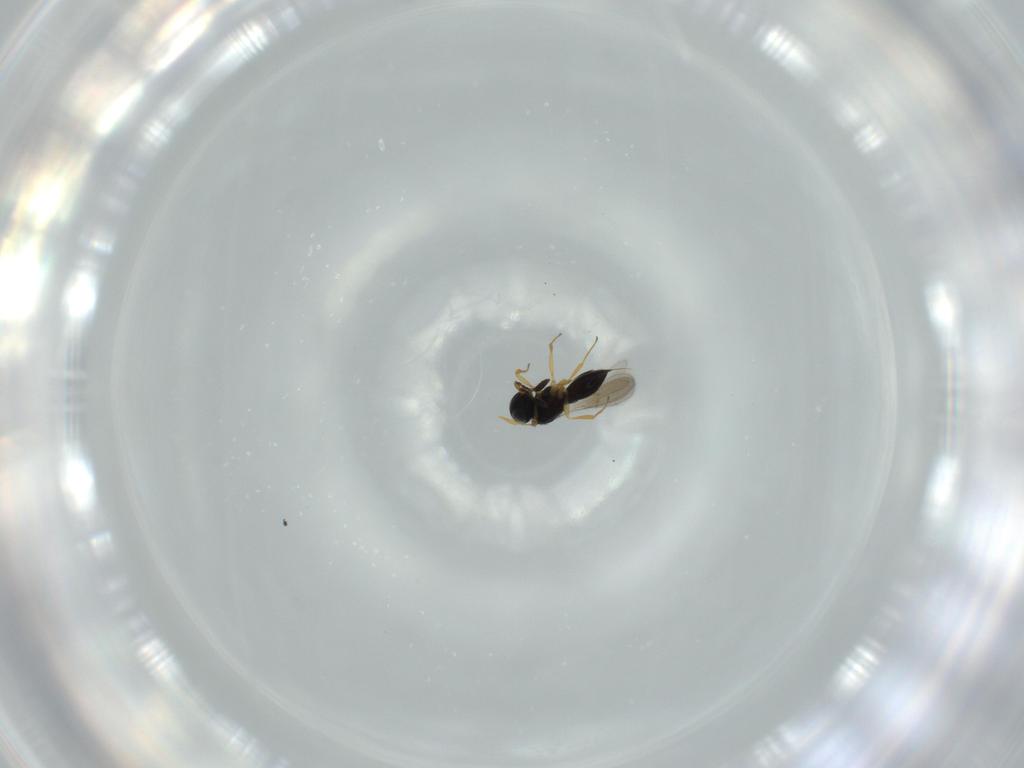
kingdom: Animalia
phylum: Arthropoda
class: Insecta
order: Hymenoptera
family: Scelionidae
